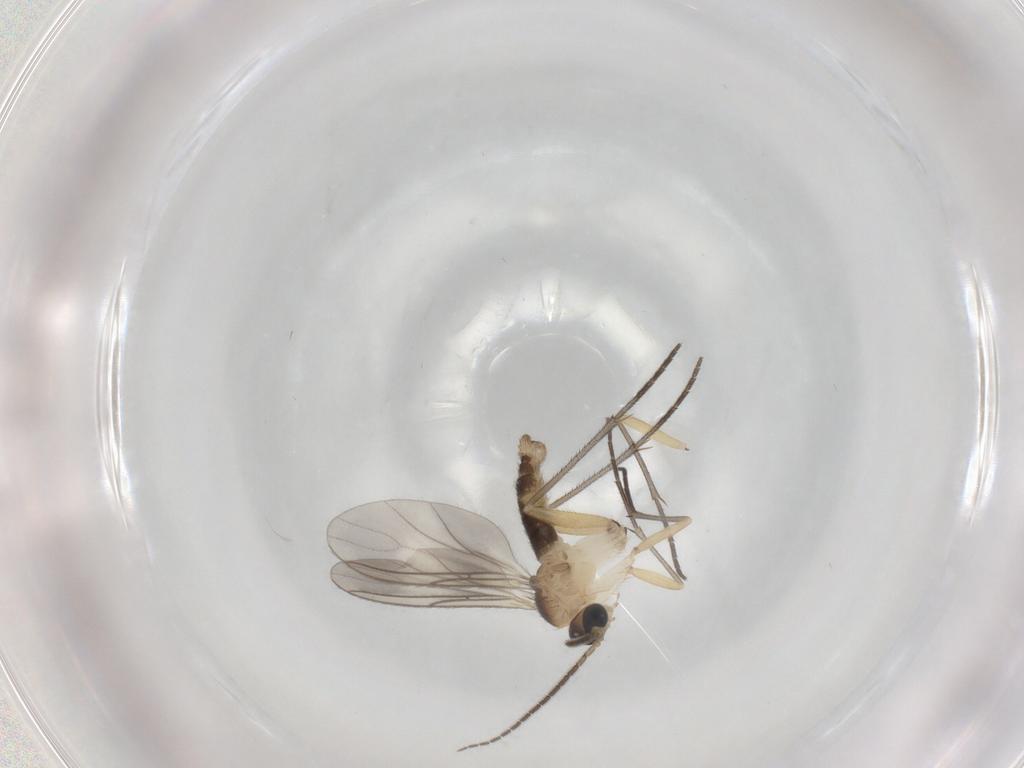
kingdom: Animalia
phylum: Arthropoda
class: Insecta
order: Diptera
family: Sciaridae
